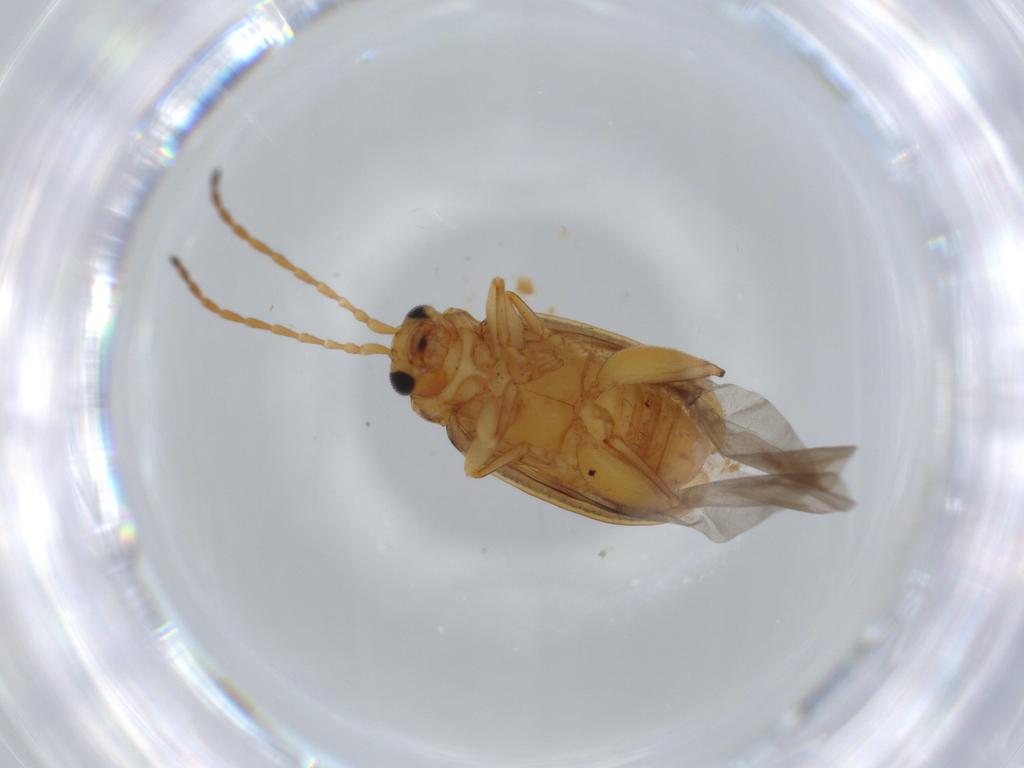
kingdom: Animalia
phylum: Arthropoda
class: Insecta
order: Coleoptera
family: Chrysomelidae
